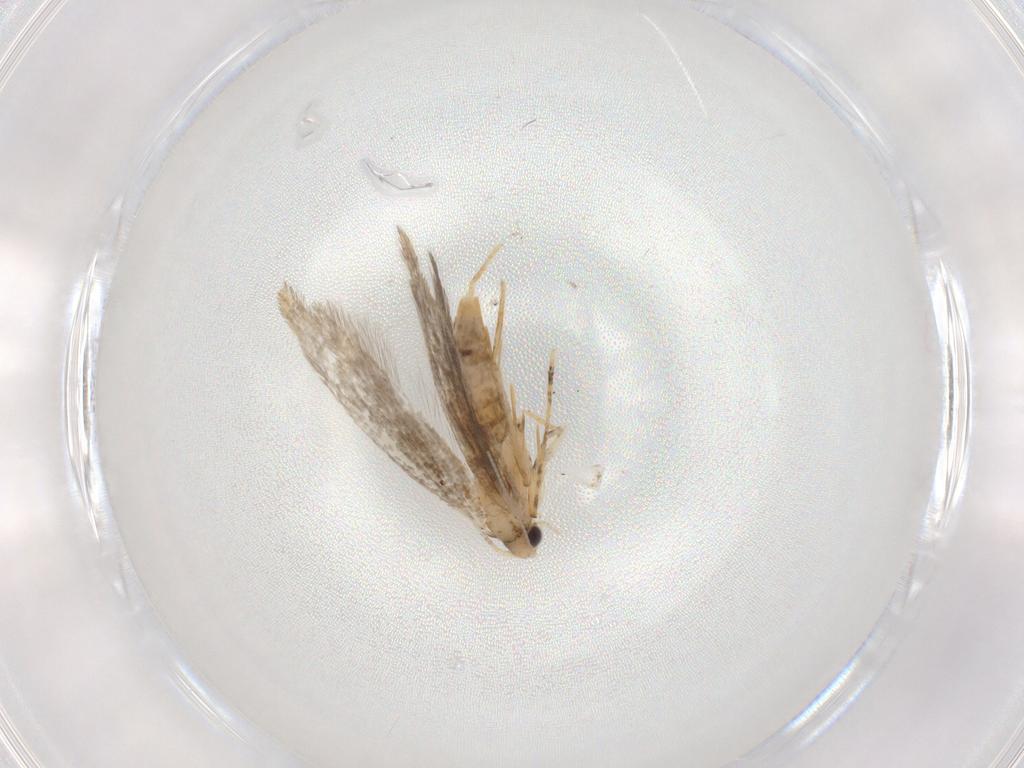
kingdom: Animalia
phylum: Arthropoda
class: Insecta
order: Lepidoptera
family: Tineidae
